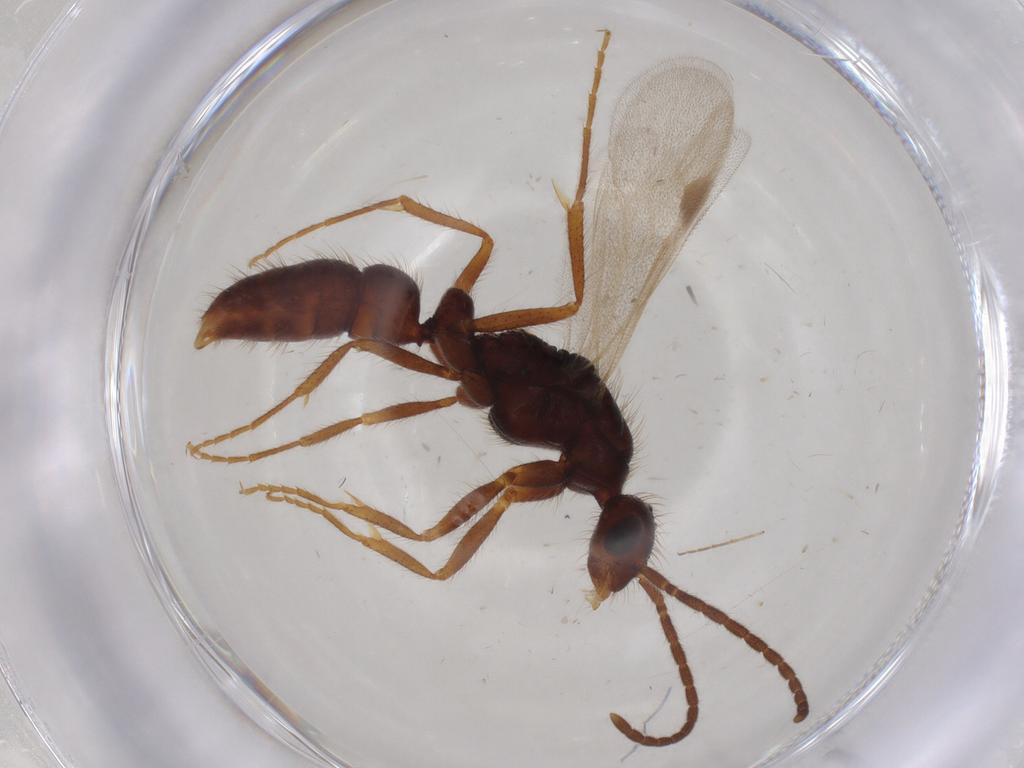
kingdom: Animalia
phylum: Arthropoda
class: Insecta
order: Hymenoptera
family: Formicidae
